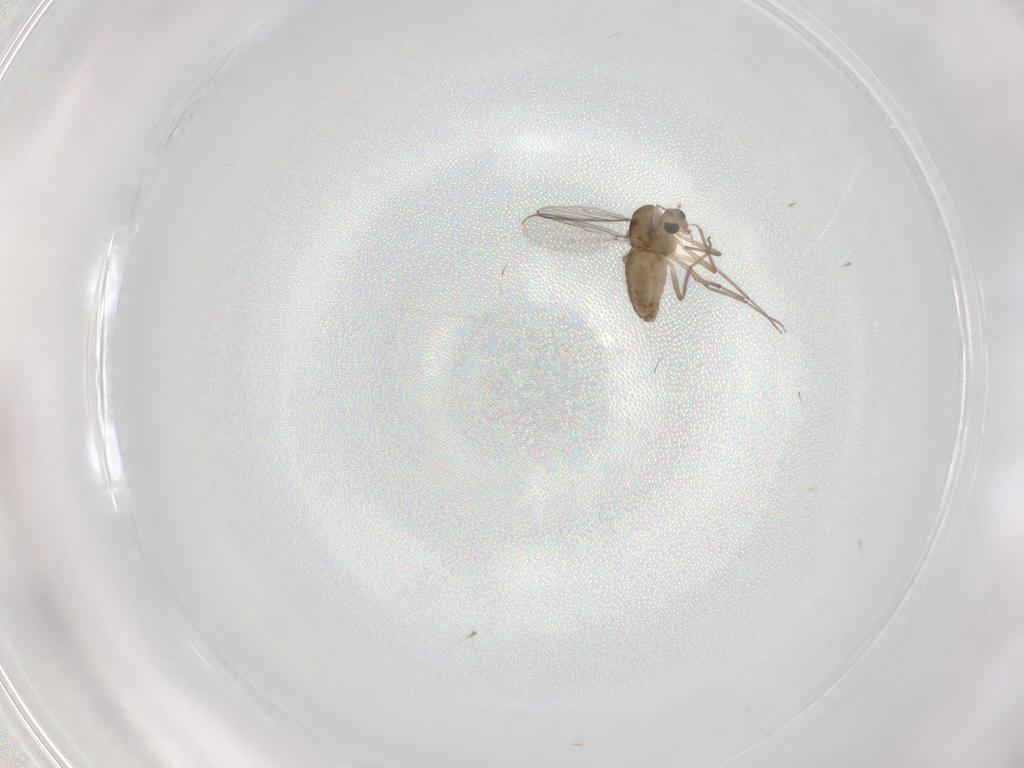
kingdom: Animalia
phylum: Arthropoda
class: Insecta
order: Diptera
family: Chironomidae
